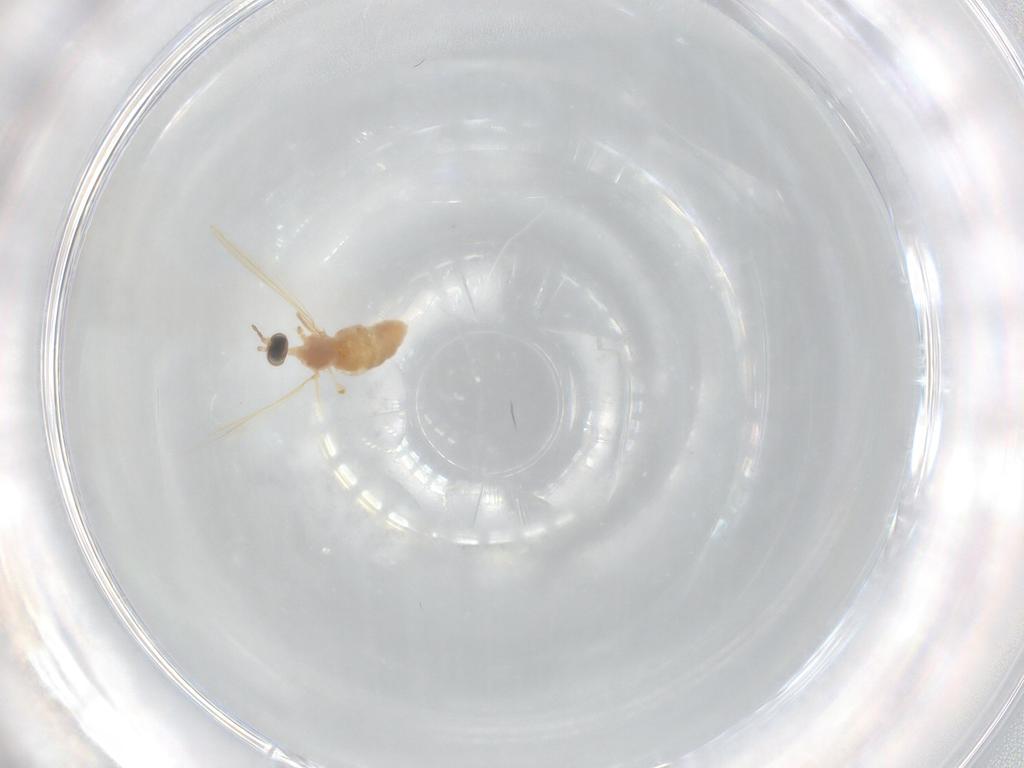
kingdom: Animalia
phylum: Arthropoda
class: Insecta
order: Diptera
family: Cecidomyiidae
